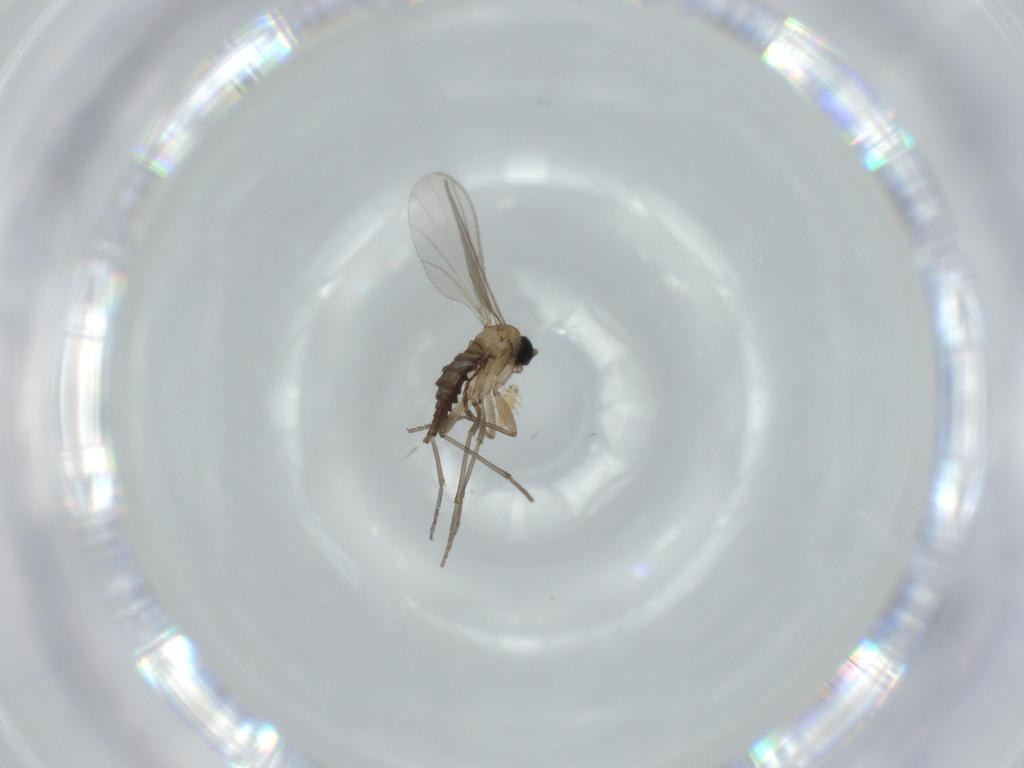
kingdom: Animalia
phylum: Arthropoda
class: Insecta
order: Diptera
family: Sciaridae
